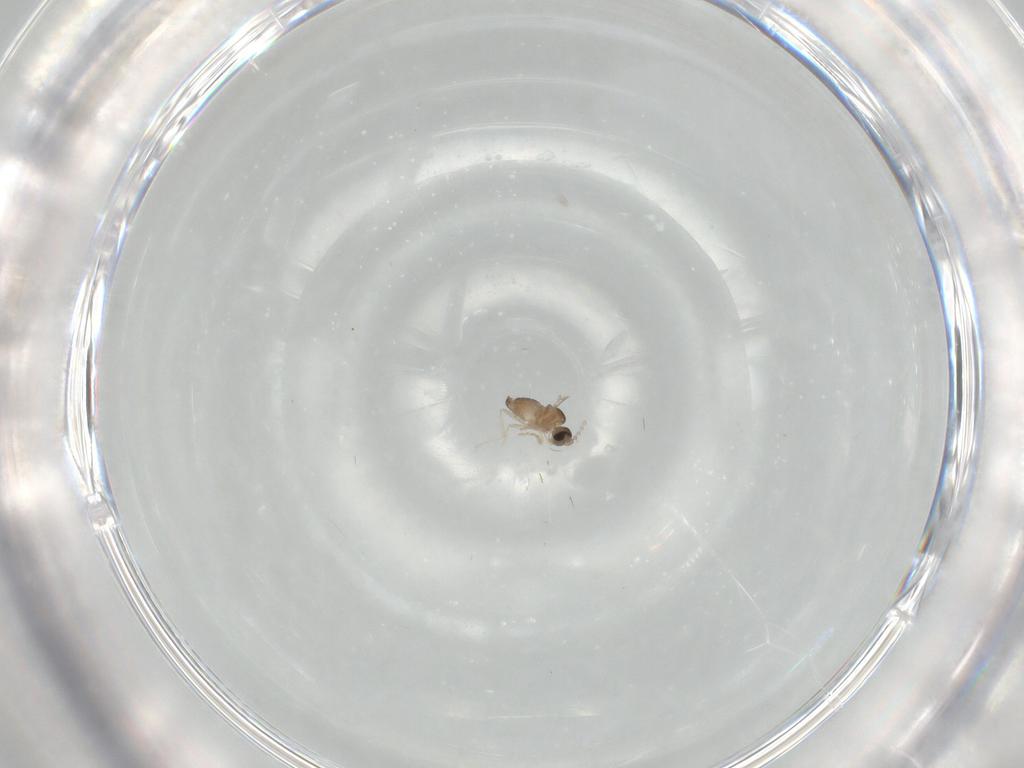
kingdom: Animalia
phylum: Arthropoda
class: Insecta
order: Diptera
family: Cecidomyiidae
